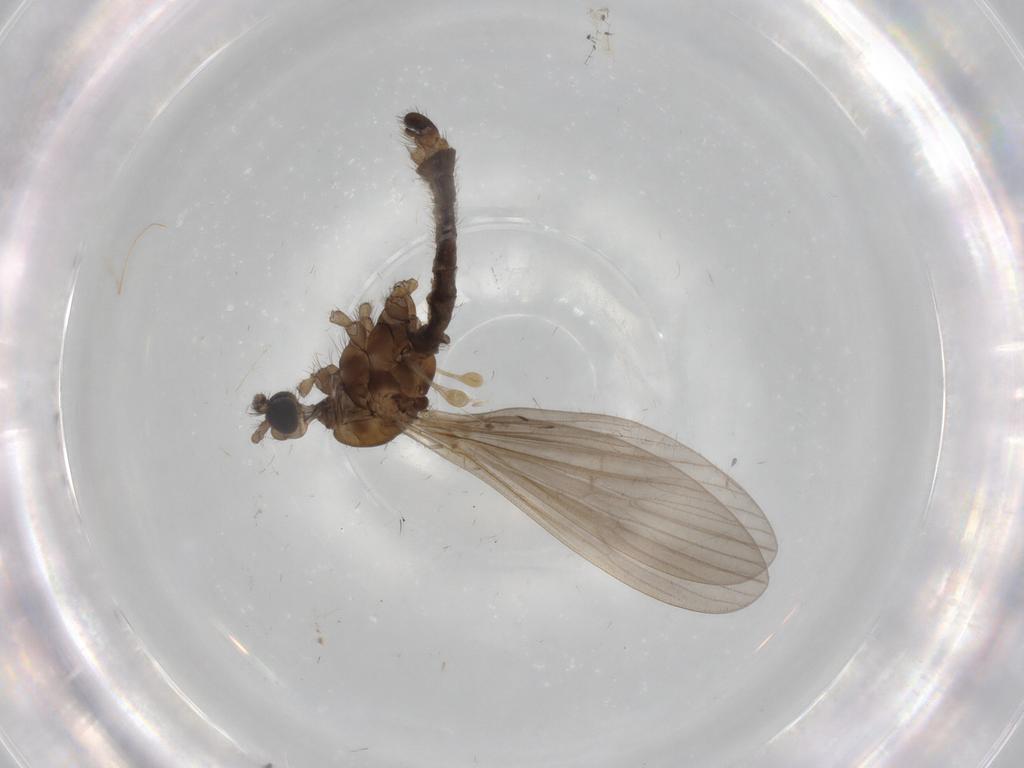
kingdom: Animalia
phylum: Arthropoda
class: Insecta
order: Diptera
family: Limoniidae
